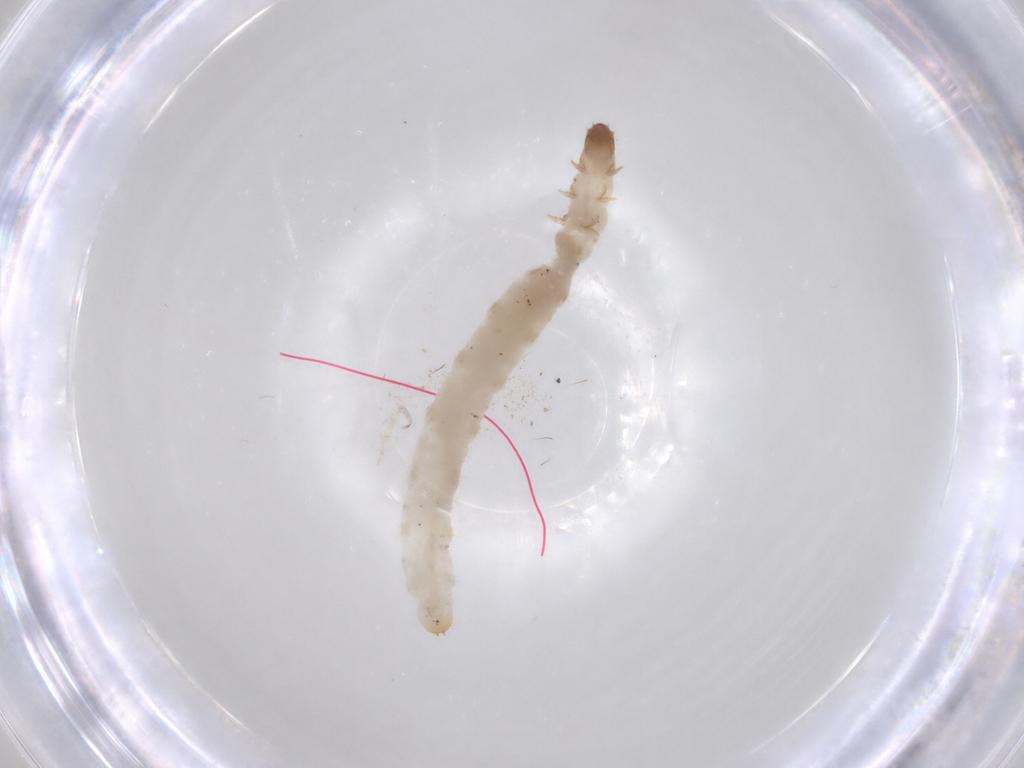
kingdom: Animalia
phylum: Arthropoda
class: Insecta
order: Coleoptera
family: Chrysomelidae
